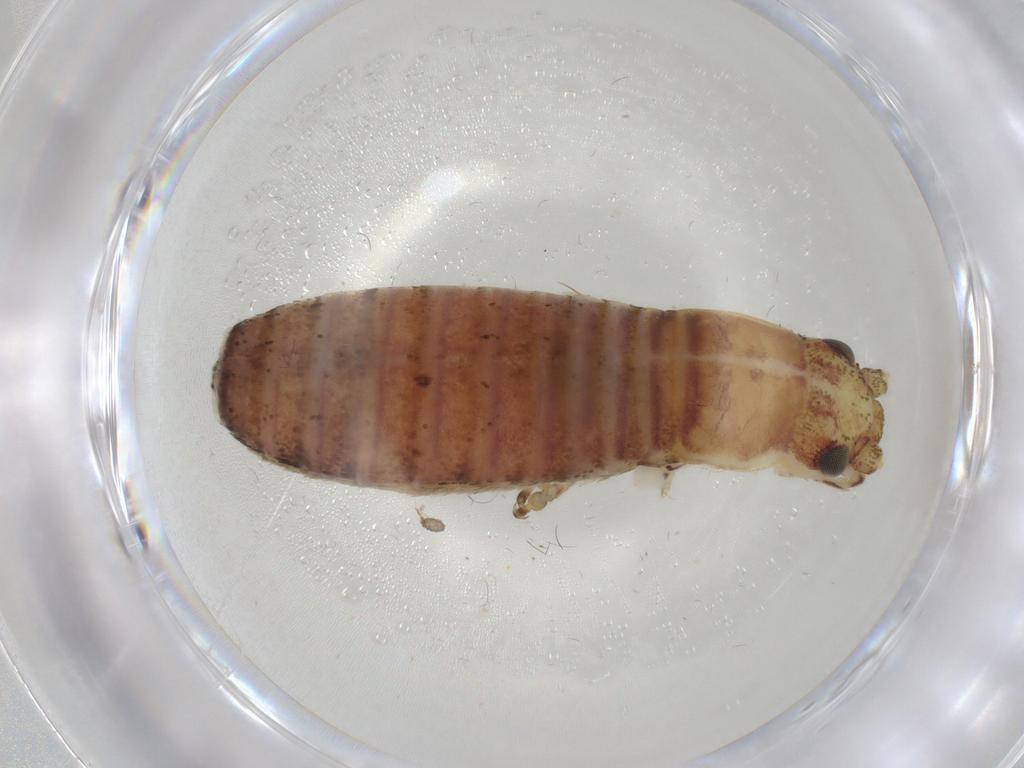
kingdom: Animalia
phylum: Arthropoda
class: Insecta
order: Orthoptera
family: Mogoplistidae
